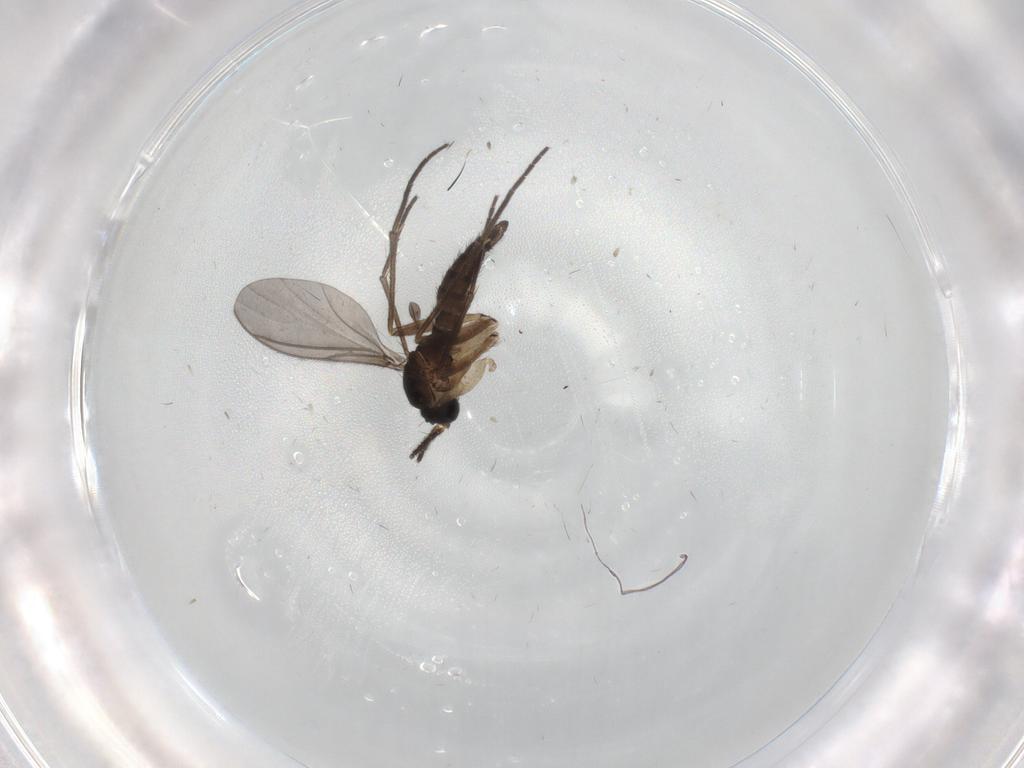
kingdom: Animalia
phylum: Arthropoda
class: Insecta
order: Diptera
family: Sciaridae
